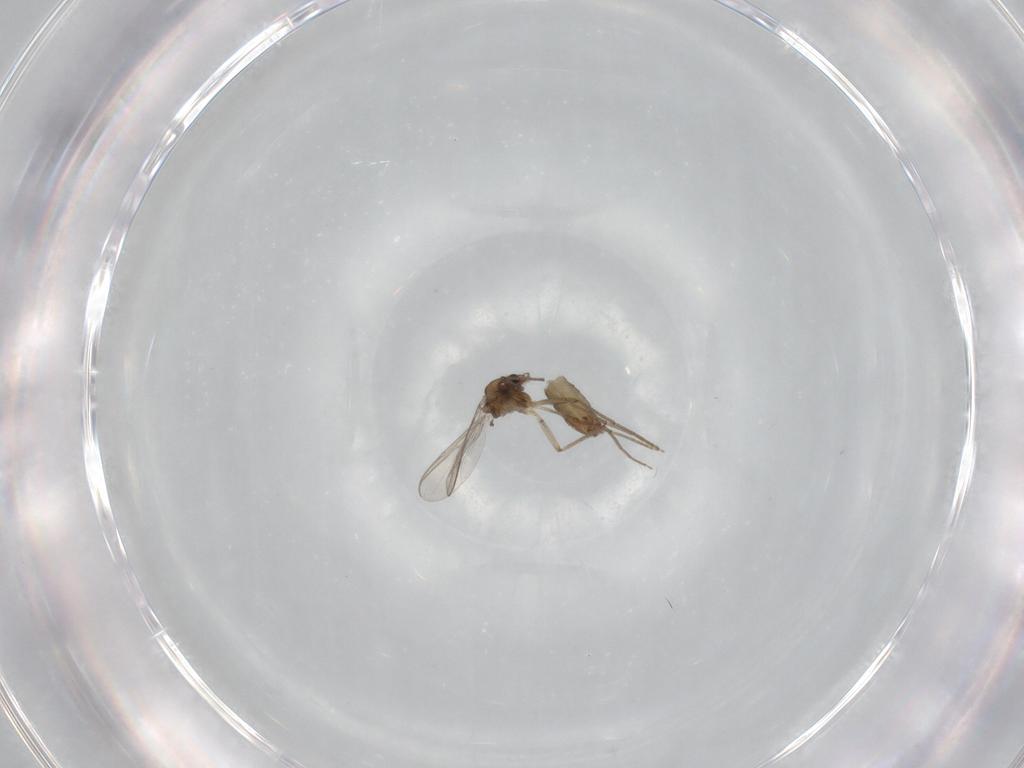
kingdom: Animalia
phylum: Arthropoda
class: Insecta
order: Diptera
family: Chironomidae
